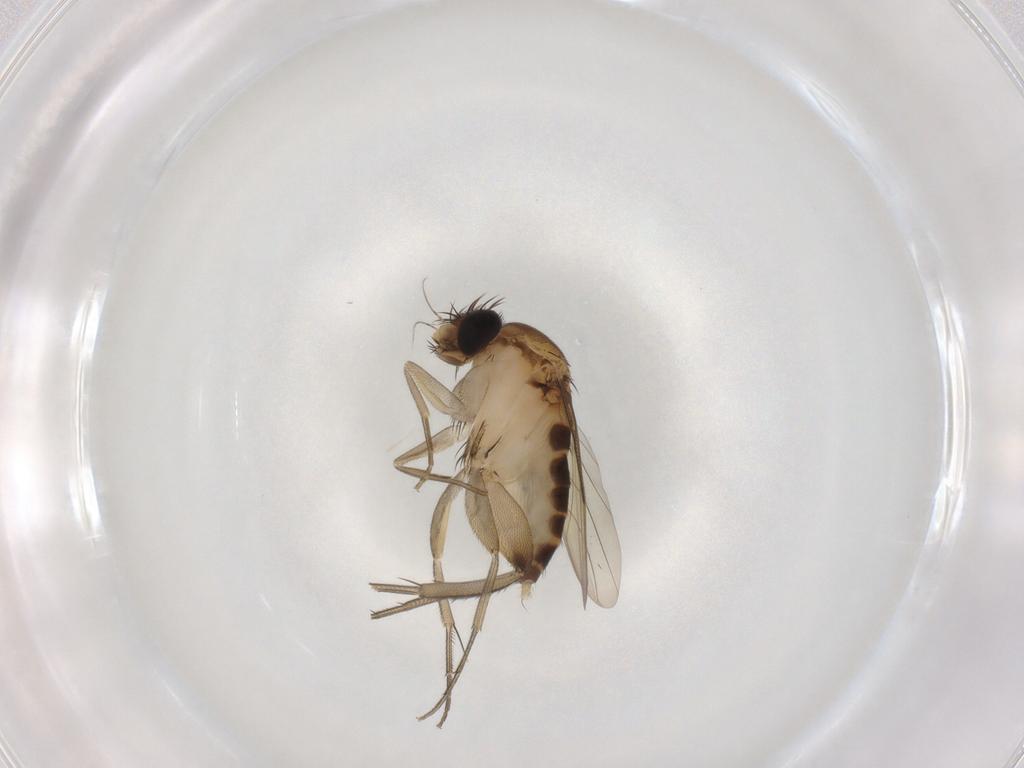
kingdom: Animalia
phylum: Arthropoda
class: Insecta
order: Diptera
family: Phoridae
